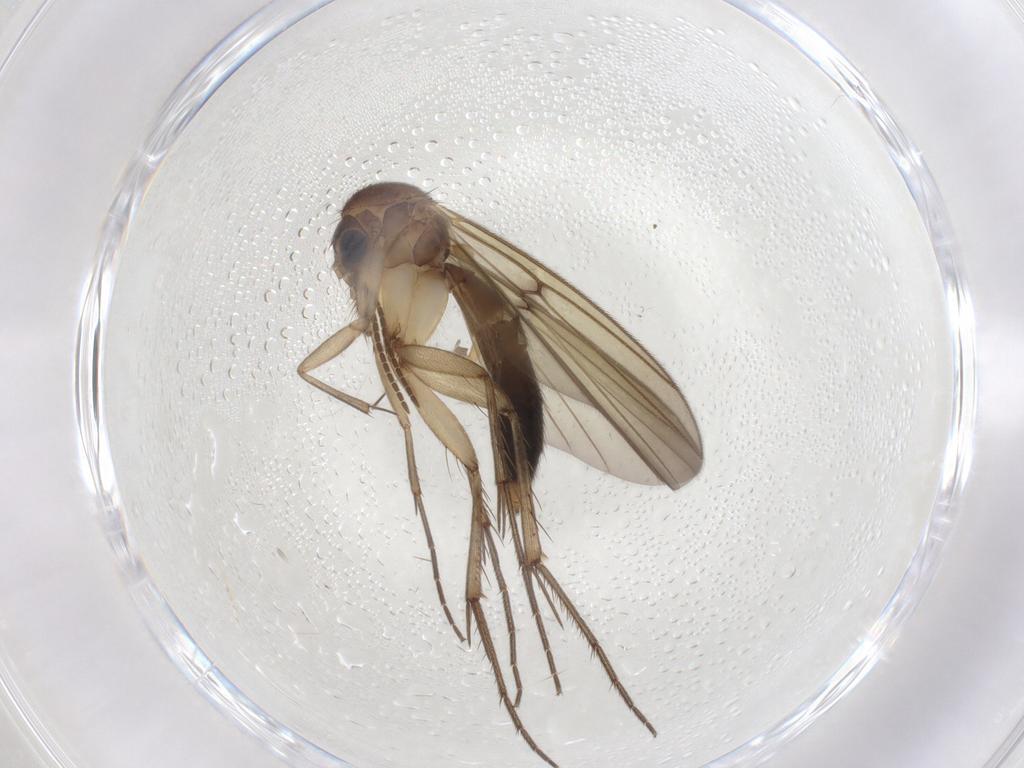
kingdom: Animalia
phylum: Arthropoda
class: Insecta
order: Diptera
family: Mycetophilidae
